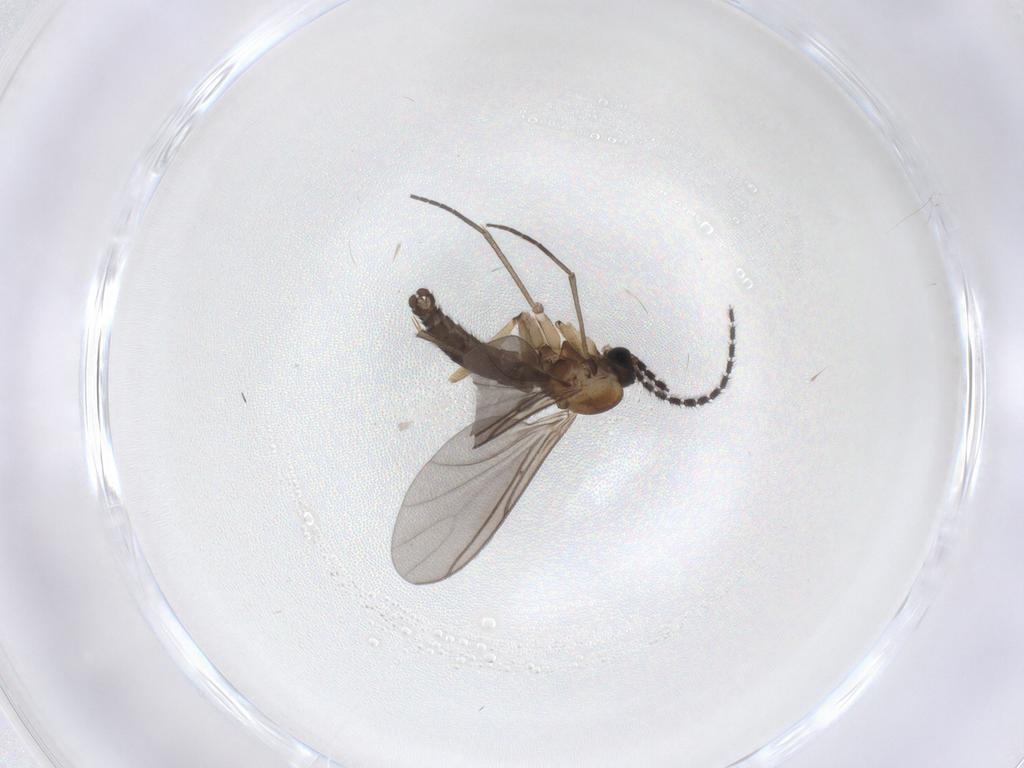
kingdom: Animalia
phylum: Arthropoda
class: Insecta
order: Diptera
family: Sciaridae
